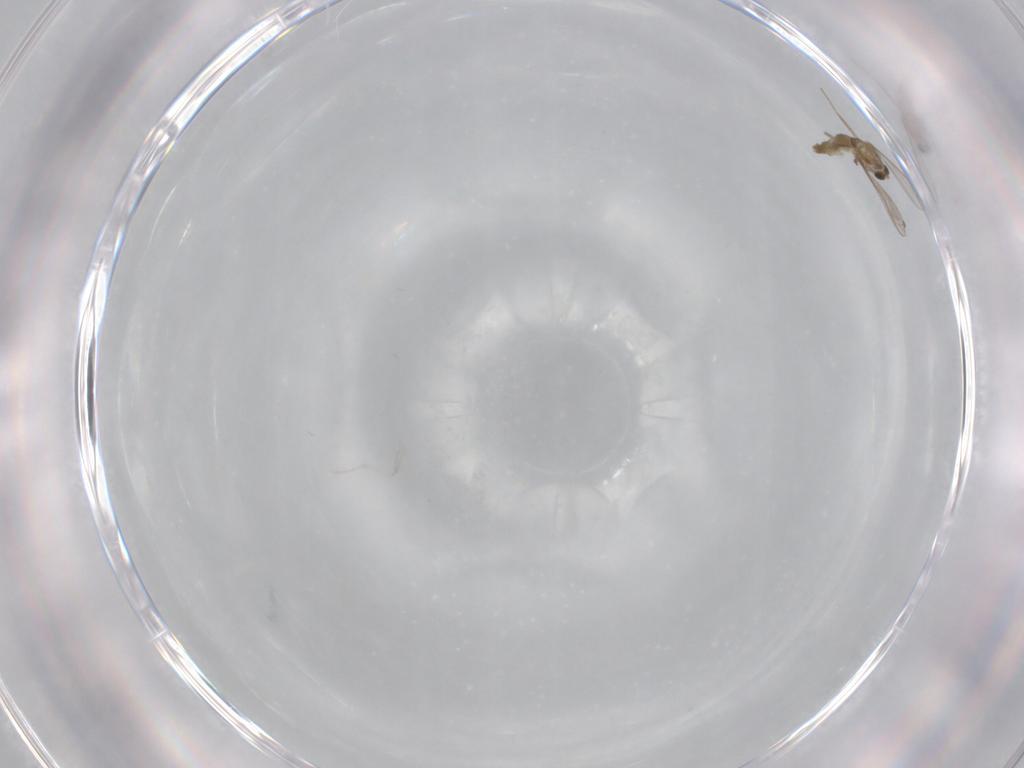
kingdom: Animalia
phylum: Arthropoda
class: Insecta
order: Diptera
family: Chironomidae
